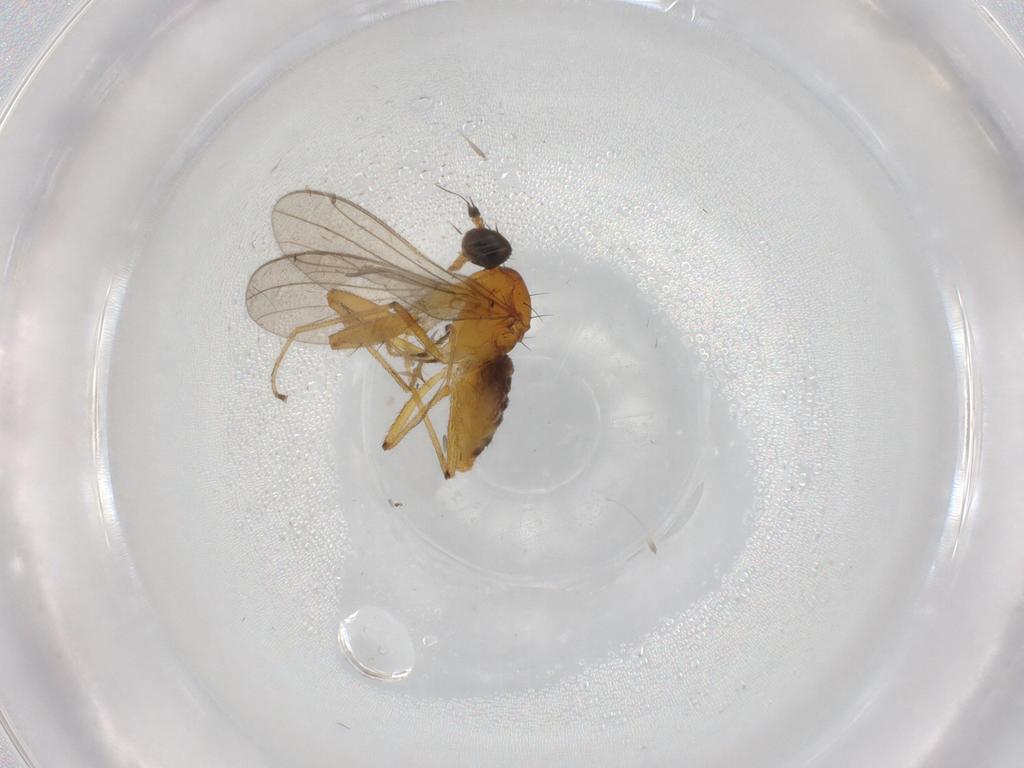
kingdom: Animalia
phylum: Arthropoda
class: Insecta
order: Diptera
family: Empididae
